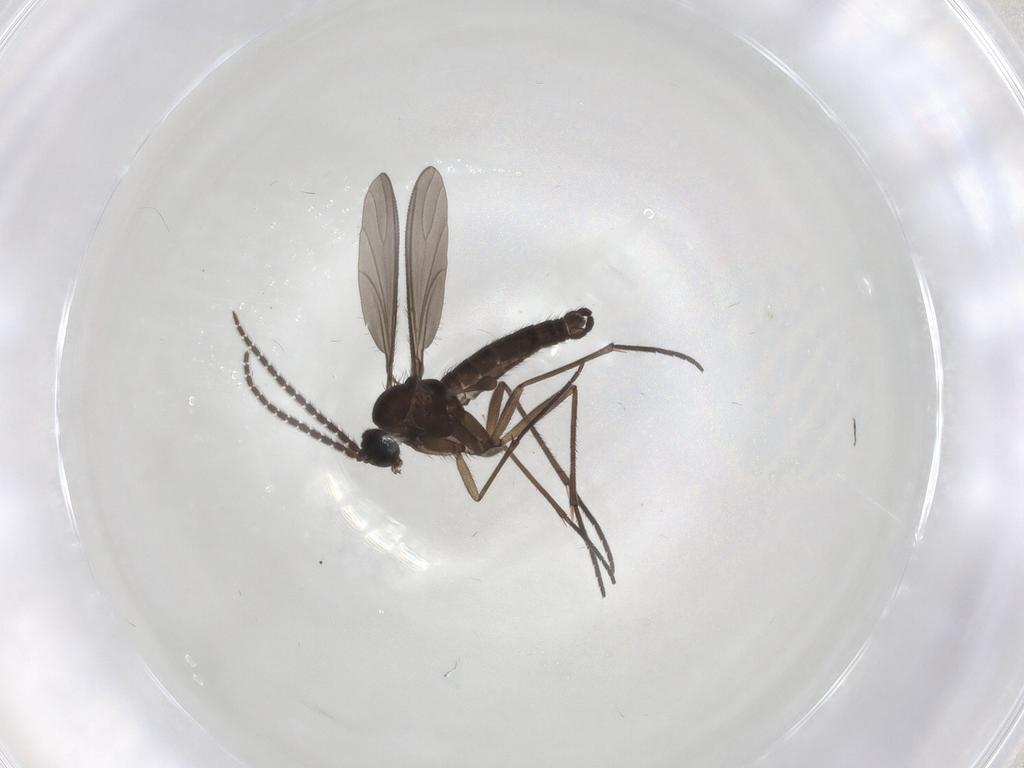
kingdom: Animalia
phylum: Arthropoda
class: Insecta
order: Diptera
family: Sciaridae
